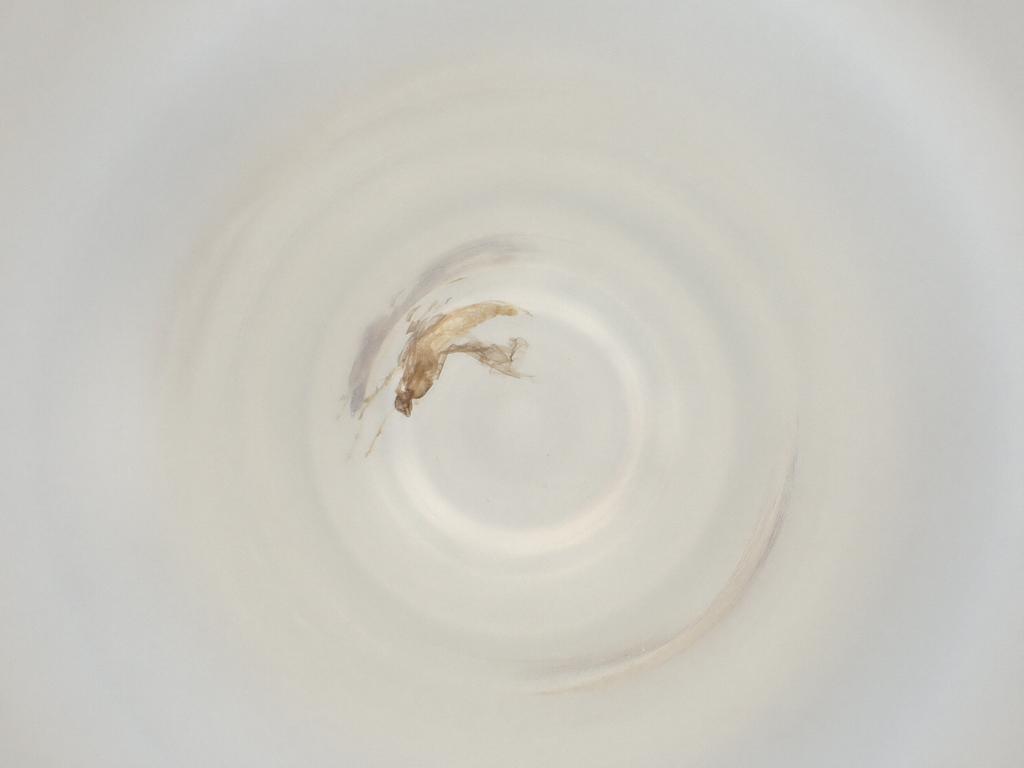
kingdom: Animalia
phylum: Arthropoda
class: Insecta
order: Diptera
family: Cecidomyiidae
